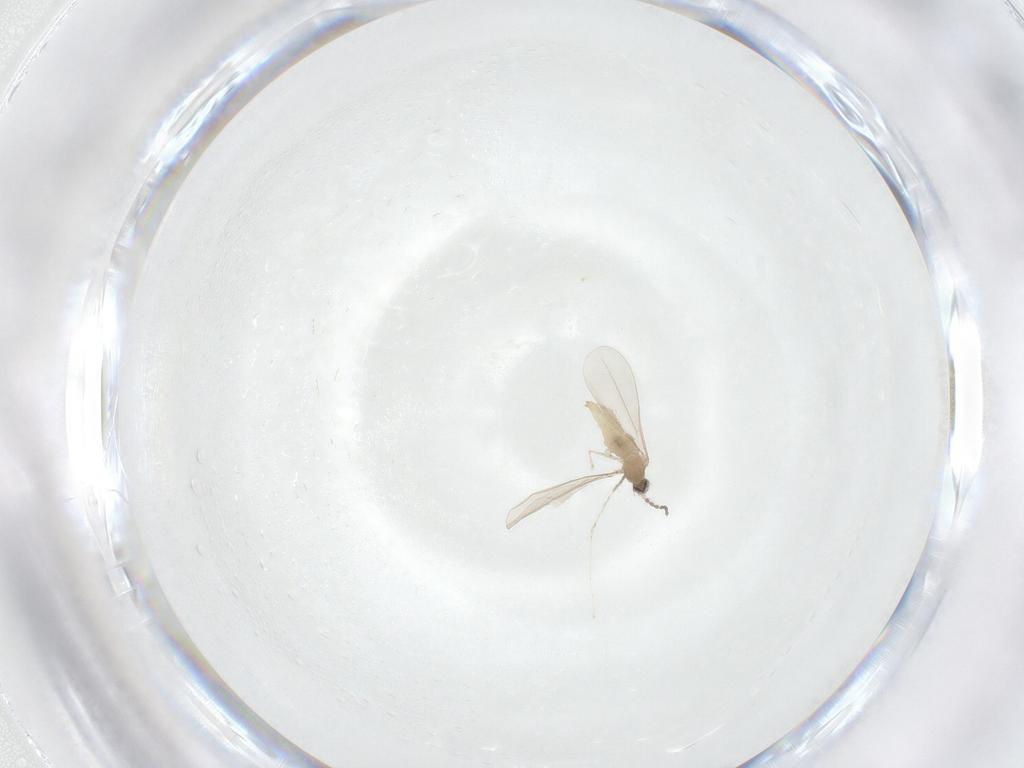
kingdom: Animalia
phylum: Arthropoda
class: Insecta
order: Diptera
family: Cecidomyiidae
